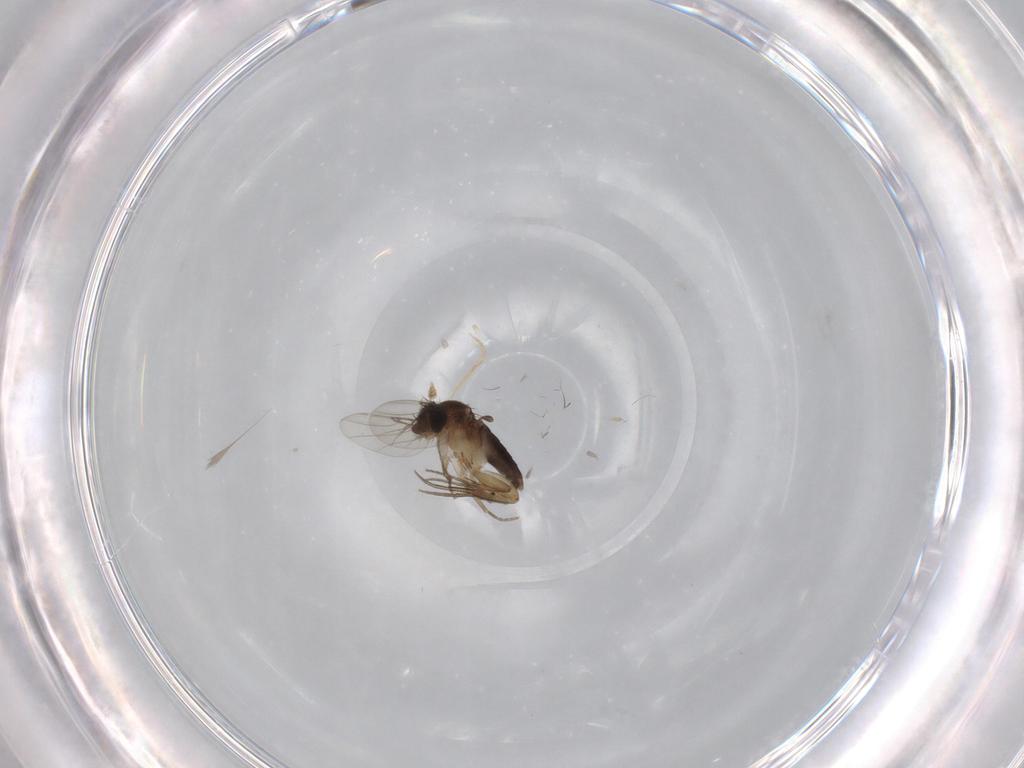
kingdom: Animalia
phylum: Arthropoda
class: Insecta
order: Diptera
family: Phoridae
